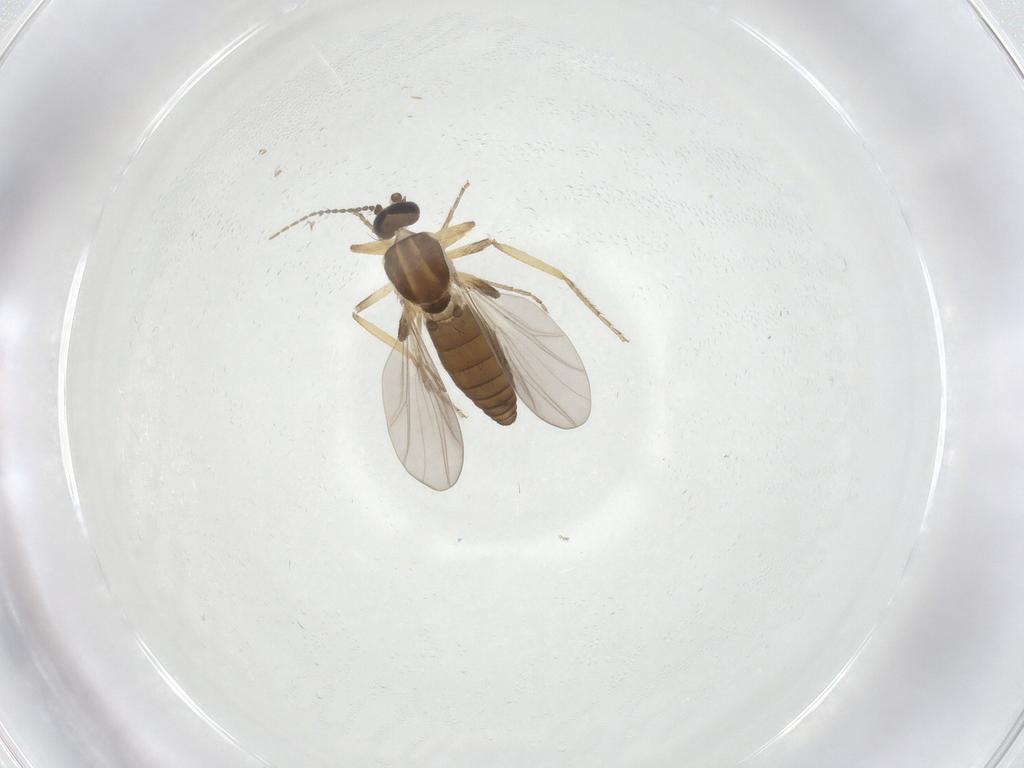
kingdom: Animalia
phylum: Arthropoda
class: Insecta
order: Diptera
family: Ceratopogonidae
